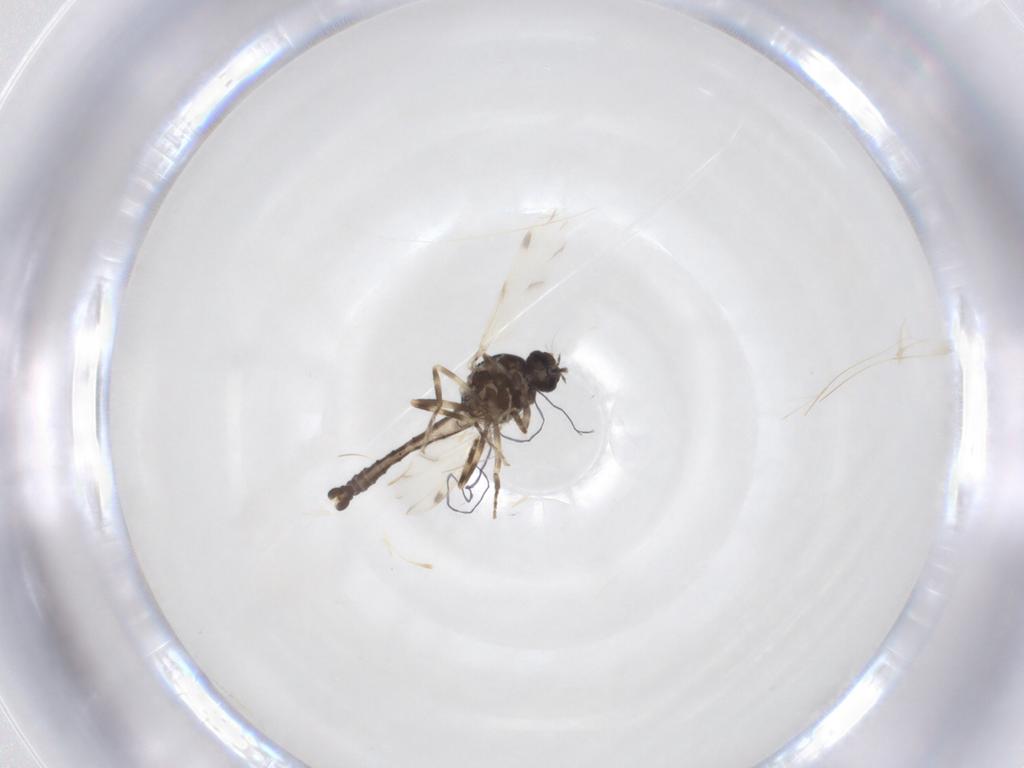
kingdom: Animalia
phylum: Arthropoda
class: Insecta
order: Diptera
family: Ceratopogonidae
